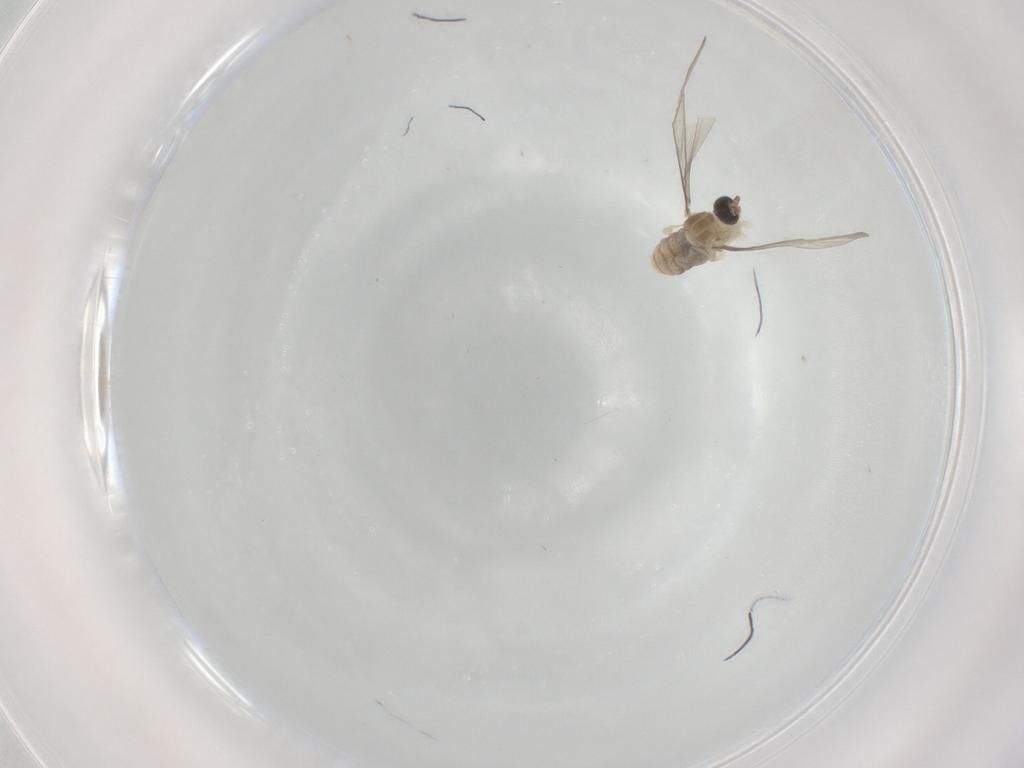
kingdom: Animalia
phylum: Arthropoda
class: Insecta
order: Diptera
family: Cecidomyiidae
